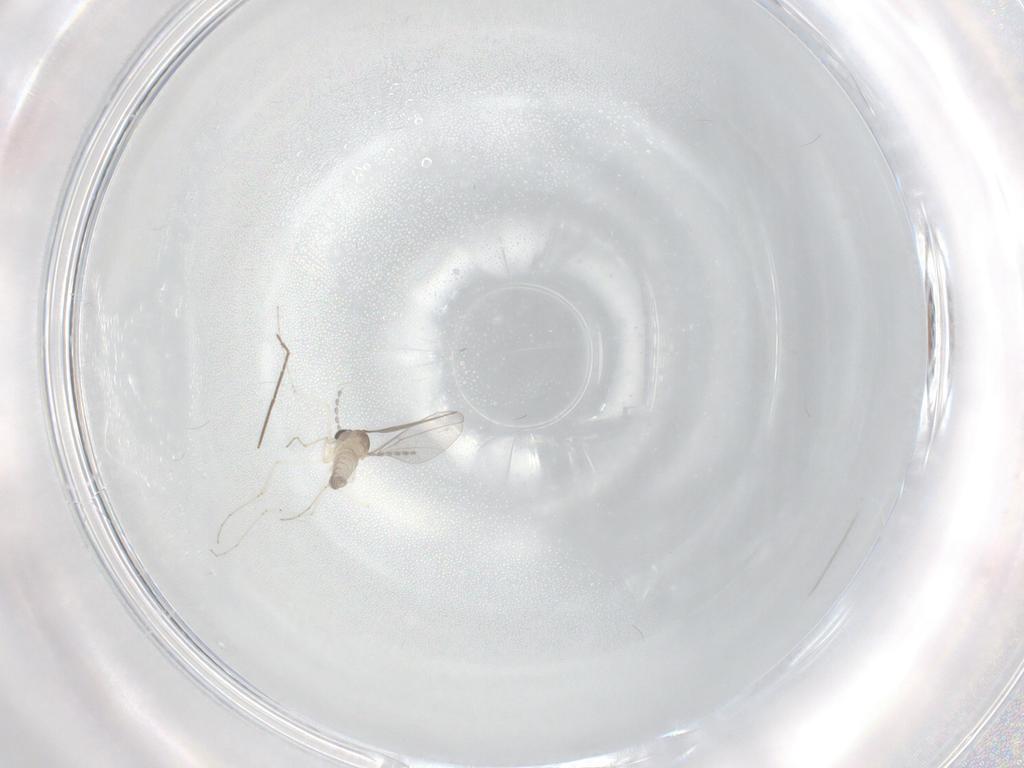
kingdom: Animalia
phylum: Arthropoda
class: Insecta
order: Diptera
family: Cecidomyiidae
